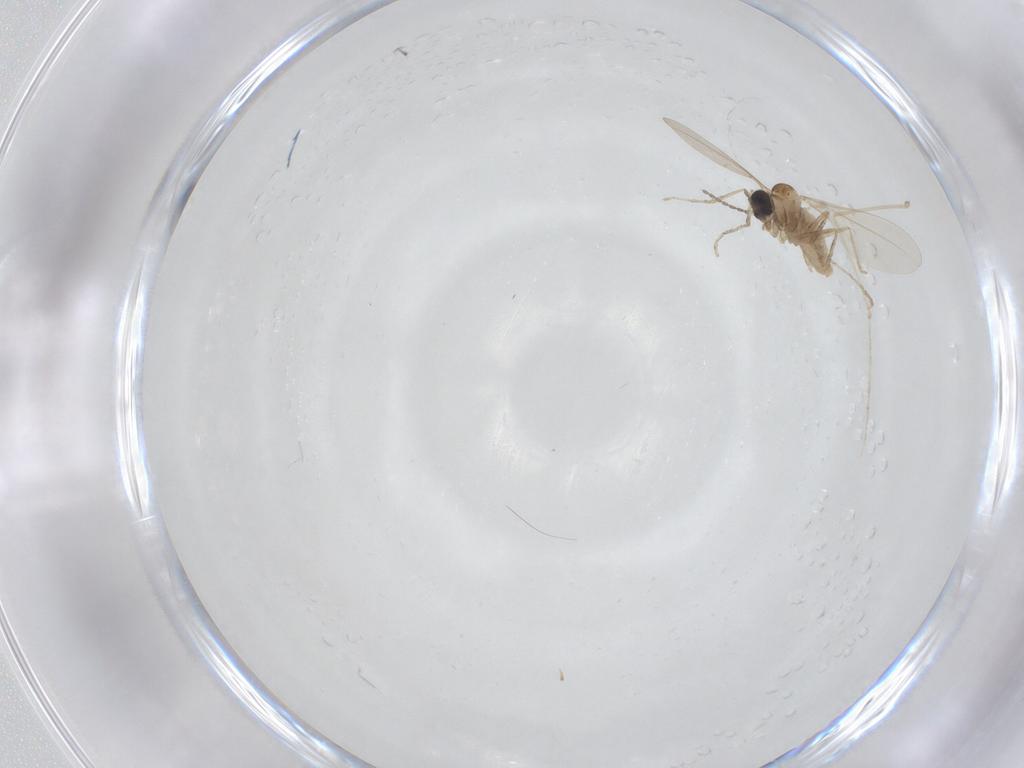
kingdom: Animalia
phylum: Arthropoda
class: Insecta
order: Diptera
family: Cecidomyiidae
